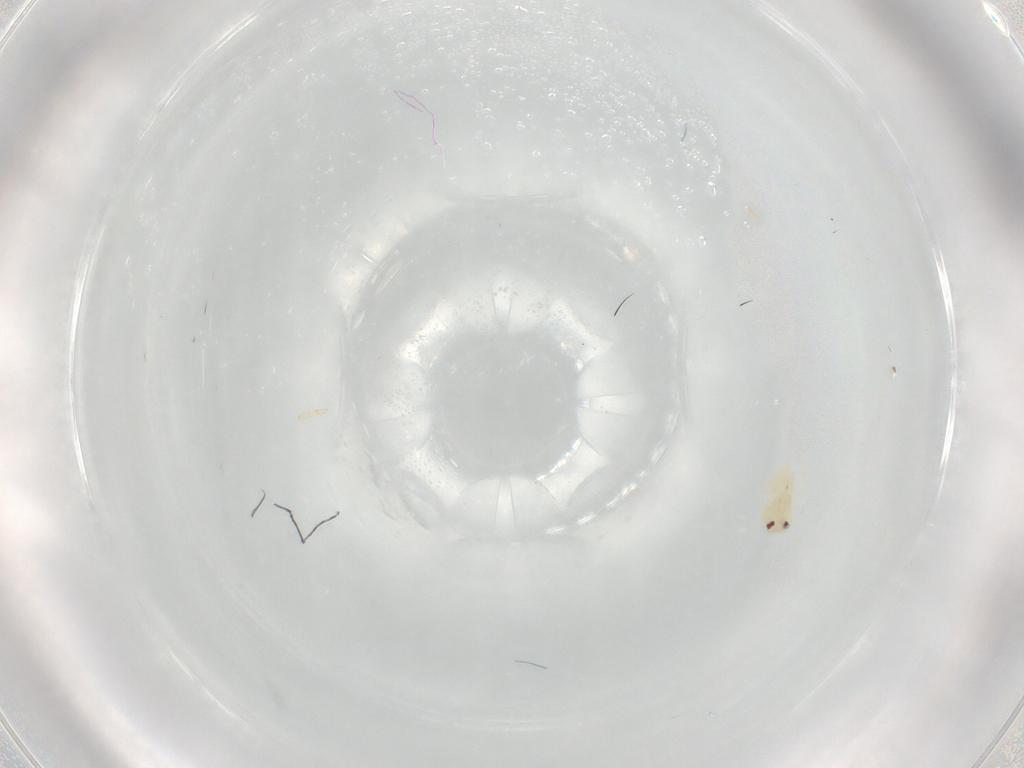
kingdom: Animalia
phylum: Arthropoda
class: Insecta
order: Hemiptera
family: Aleyrodidae
